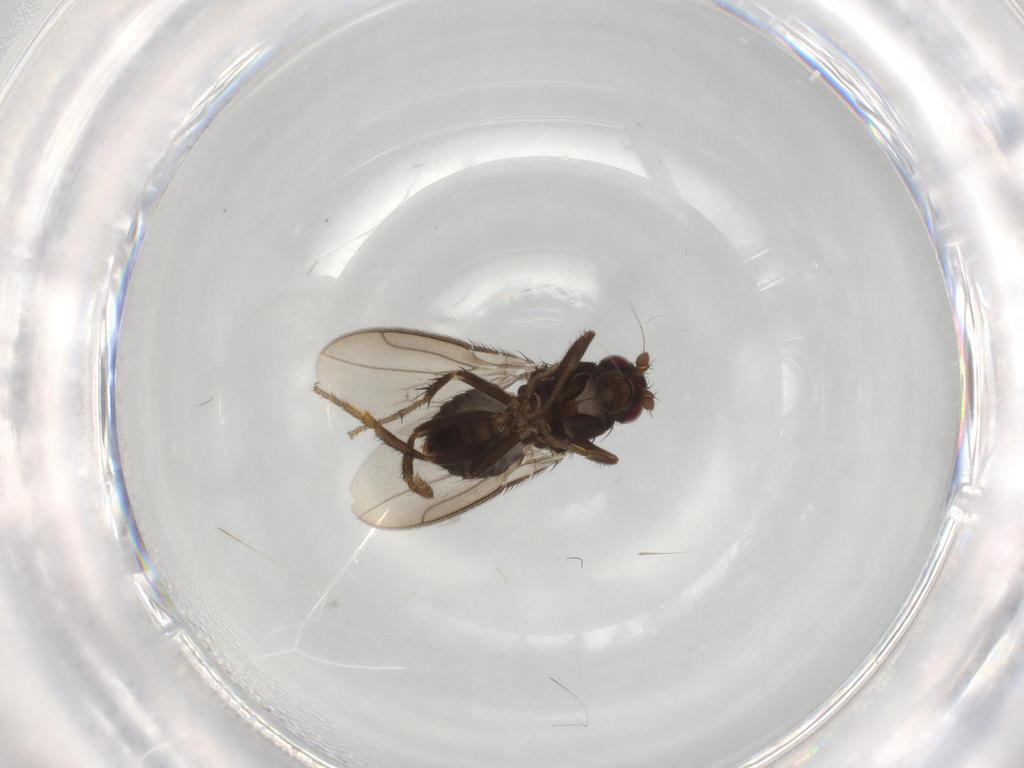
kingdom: Animalia
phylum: Arthropoda
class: Insecta
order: Diptera
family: Sphaeroceridae
